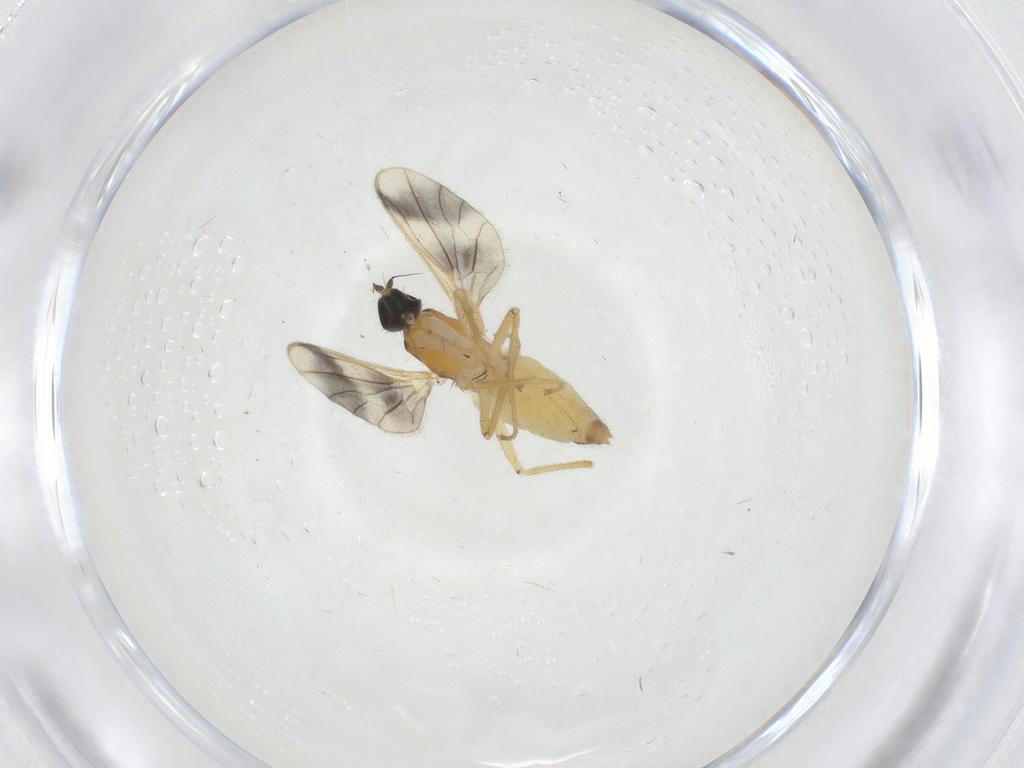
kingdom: Animalia
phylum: Arthropoda
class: Insecta
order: Diptera
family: Empididae
